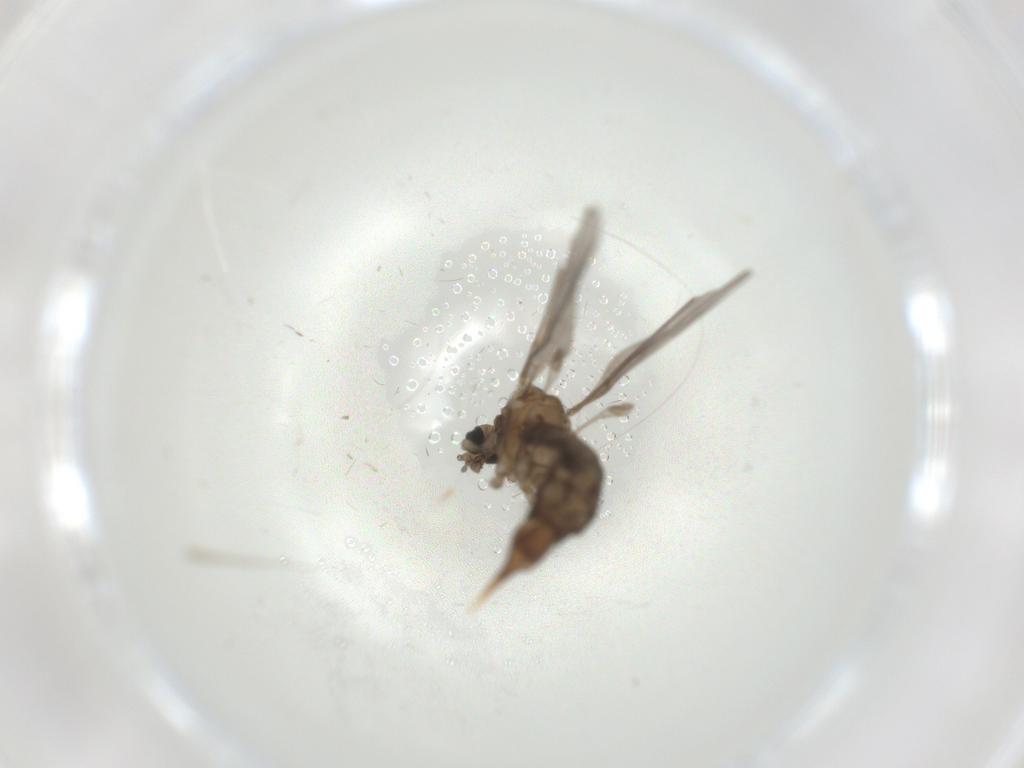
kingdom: Animalia
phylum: Arthropoda
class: Insecta
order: Diptera
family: Limoniidae
